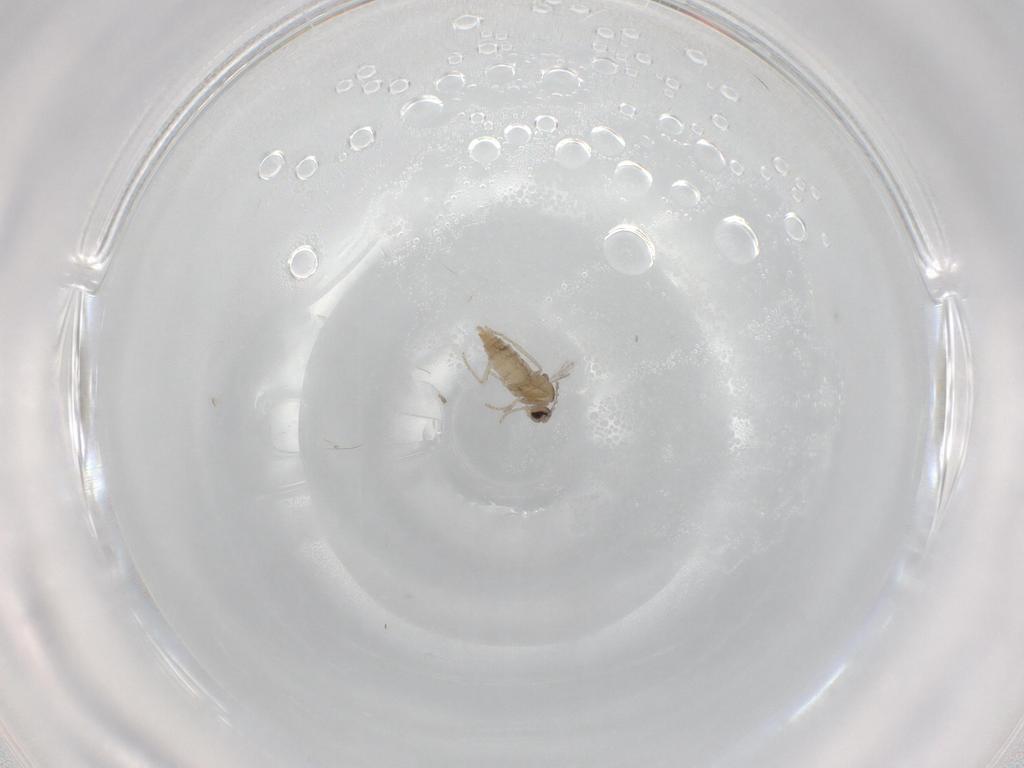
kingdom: Animalia
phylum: Arthropoda
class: Insecta
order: Diptera
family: Cecidomyiidae
